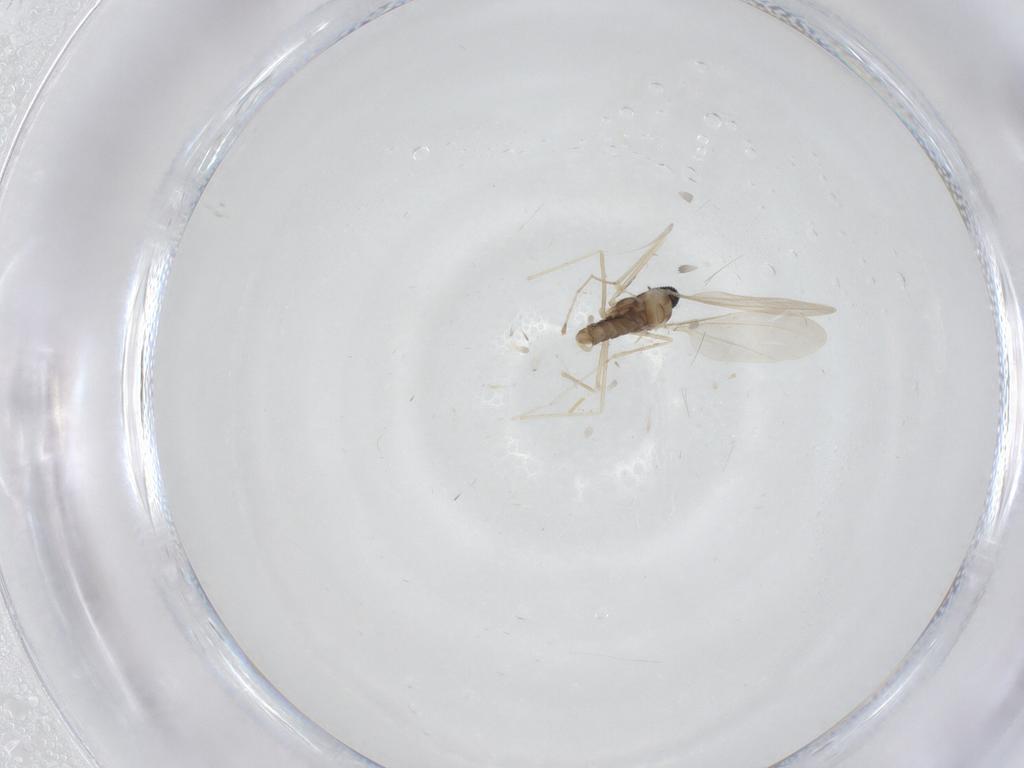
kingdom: Animalia
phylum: Arthropoda
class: Insecta
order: Diptera
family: Cecidomyiidae
